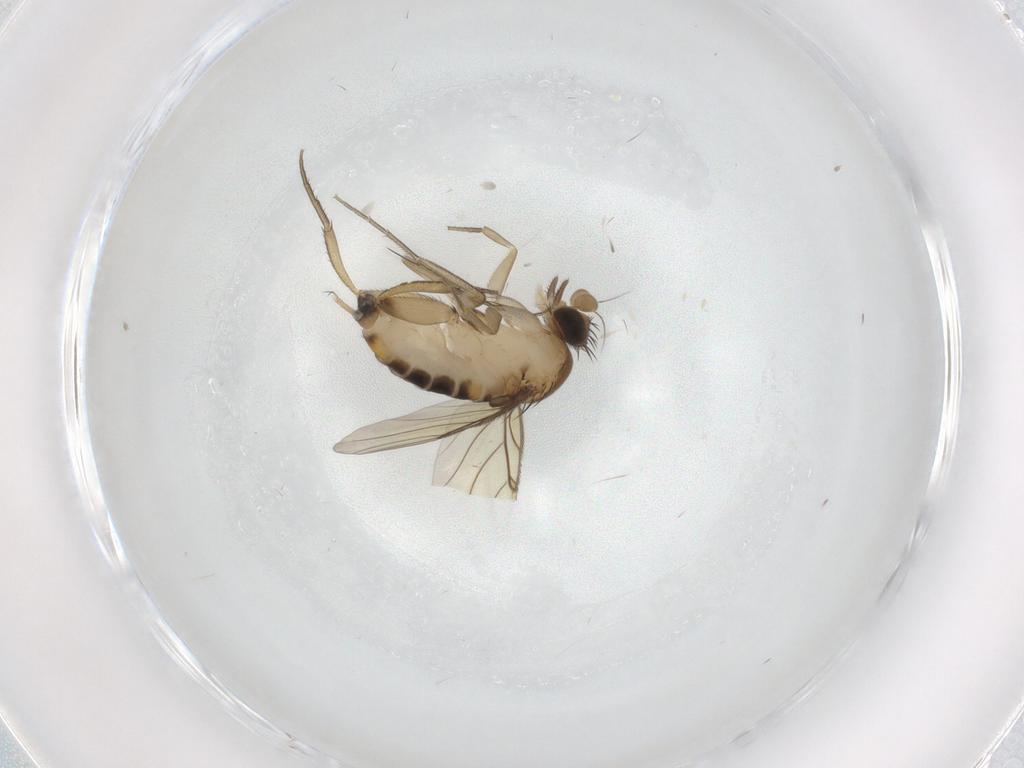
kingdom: Animalia
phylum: Arthropoda
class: Insecta
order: Diptera
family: Phoridae
